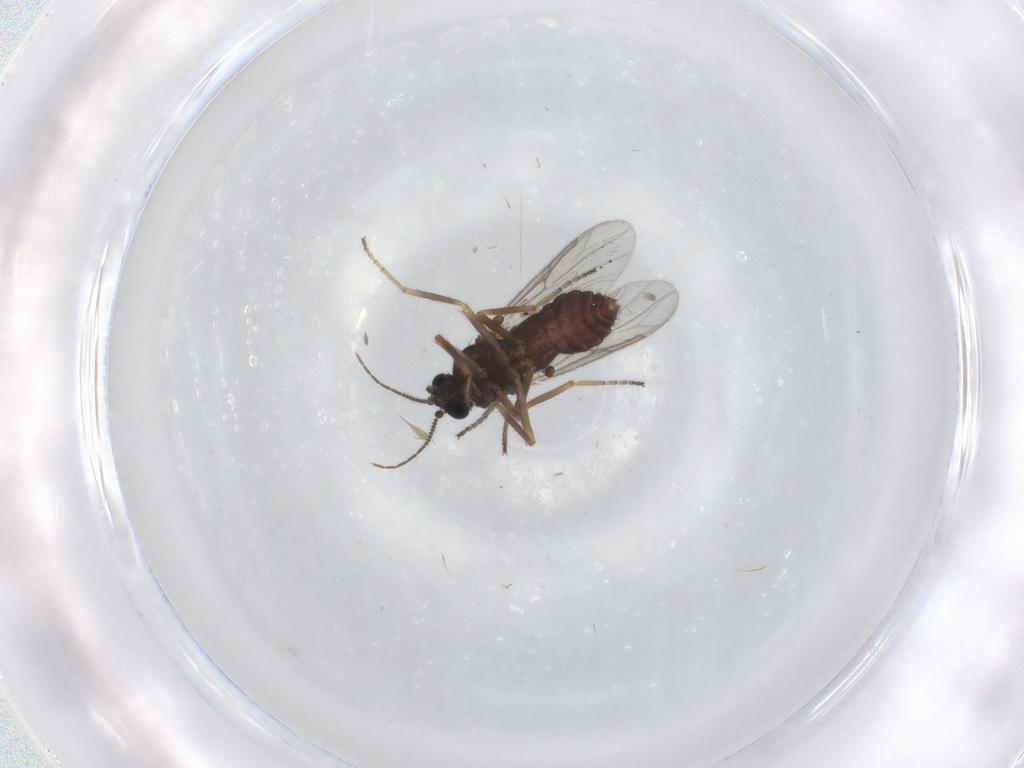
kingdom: Animalia
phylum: Arthropoda
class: Insecta
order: Diptera
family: Ceratopogonidae
